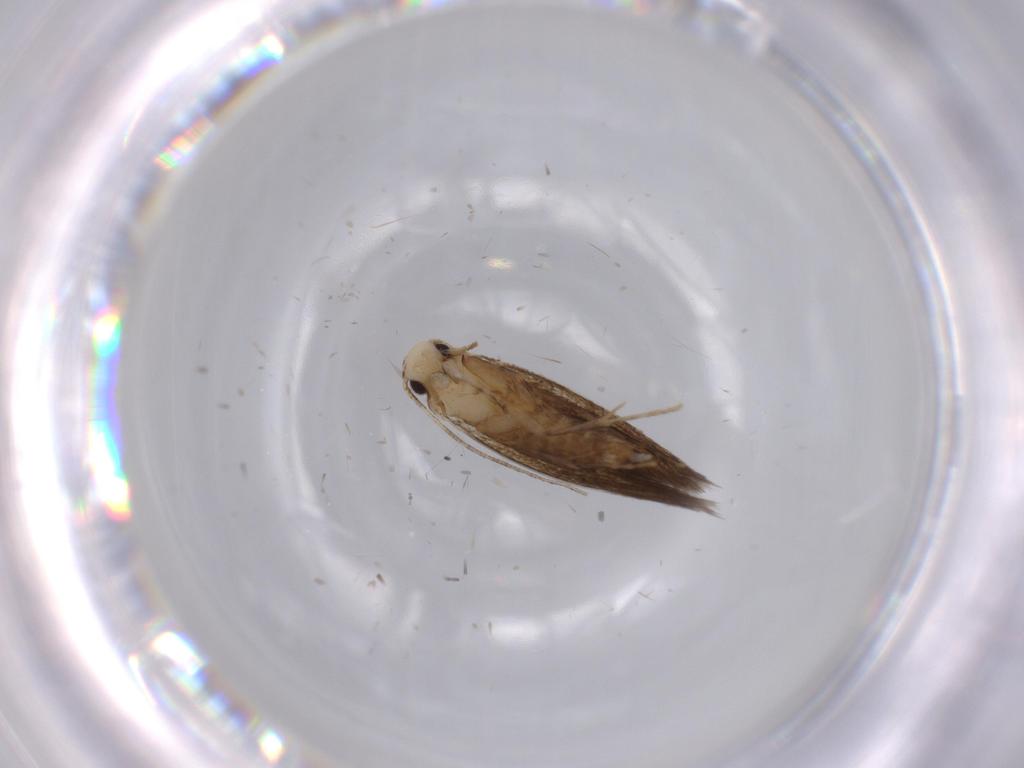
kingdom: Animalia
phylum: Arthropoda
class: Insecta
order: Lepidoptera
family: Tineidae
